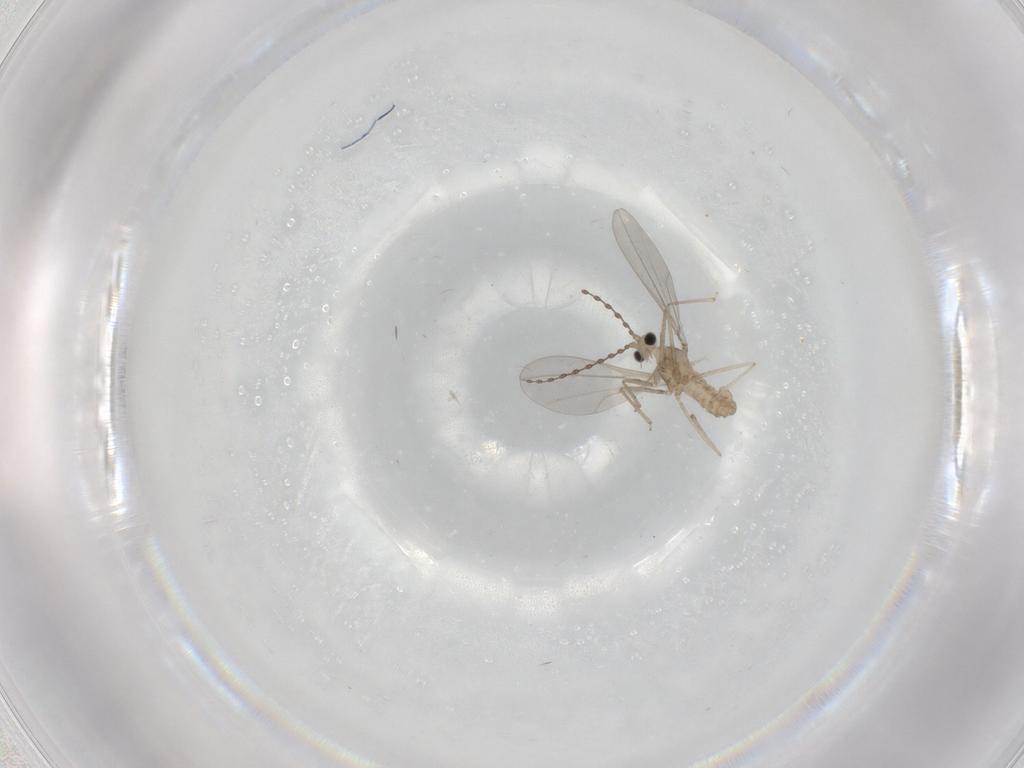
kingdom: Animalia
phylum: Arthropoda
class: Insecta
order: Diptera
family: Cecidomyiidae
